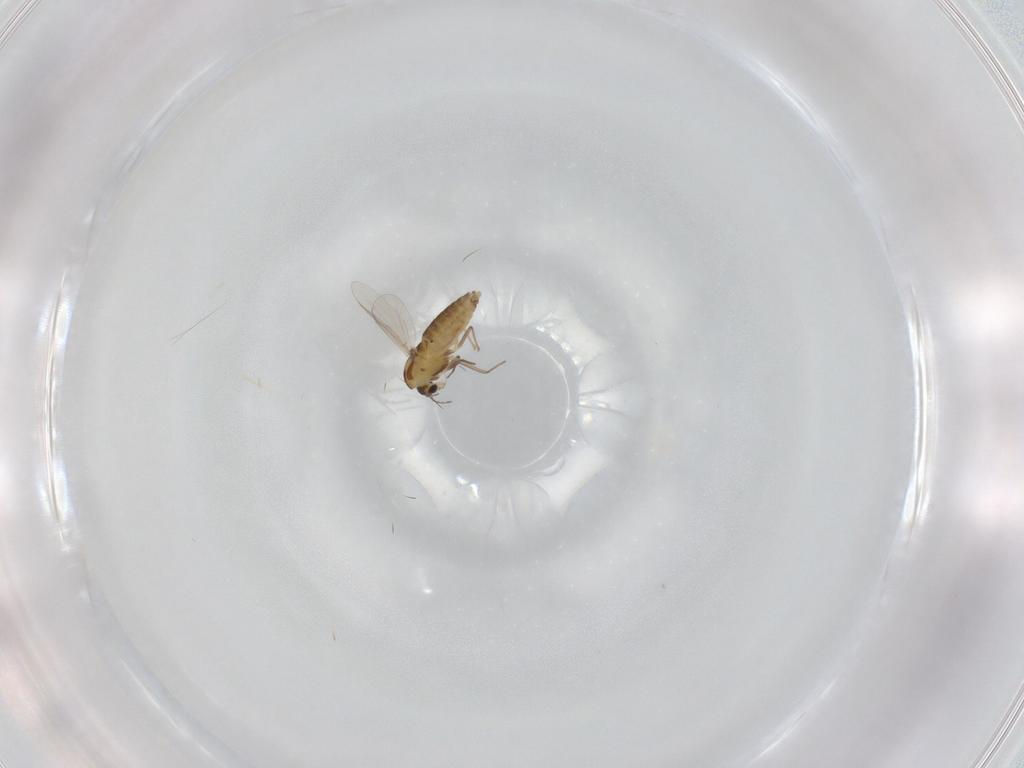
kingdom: Animalia
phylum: Arthropoda
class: Insecta
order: Diptera
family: Chironomidae
